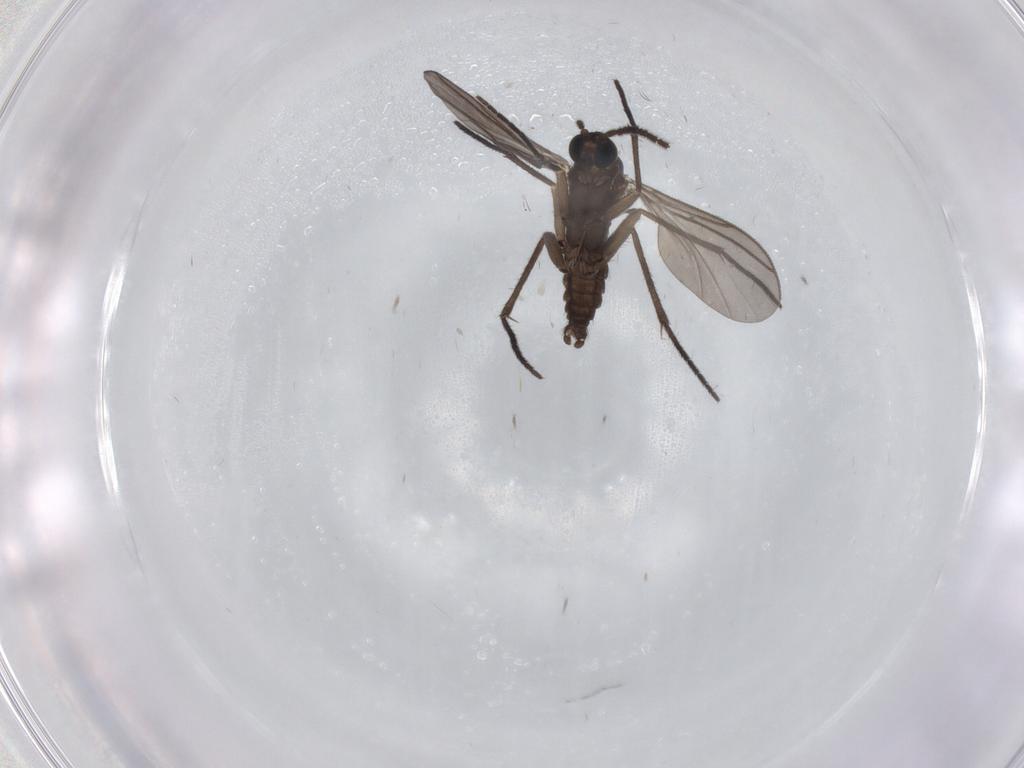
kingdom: Animalia
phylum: Arthropoda
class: Insecta
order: Diptera
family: Sciaridae
